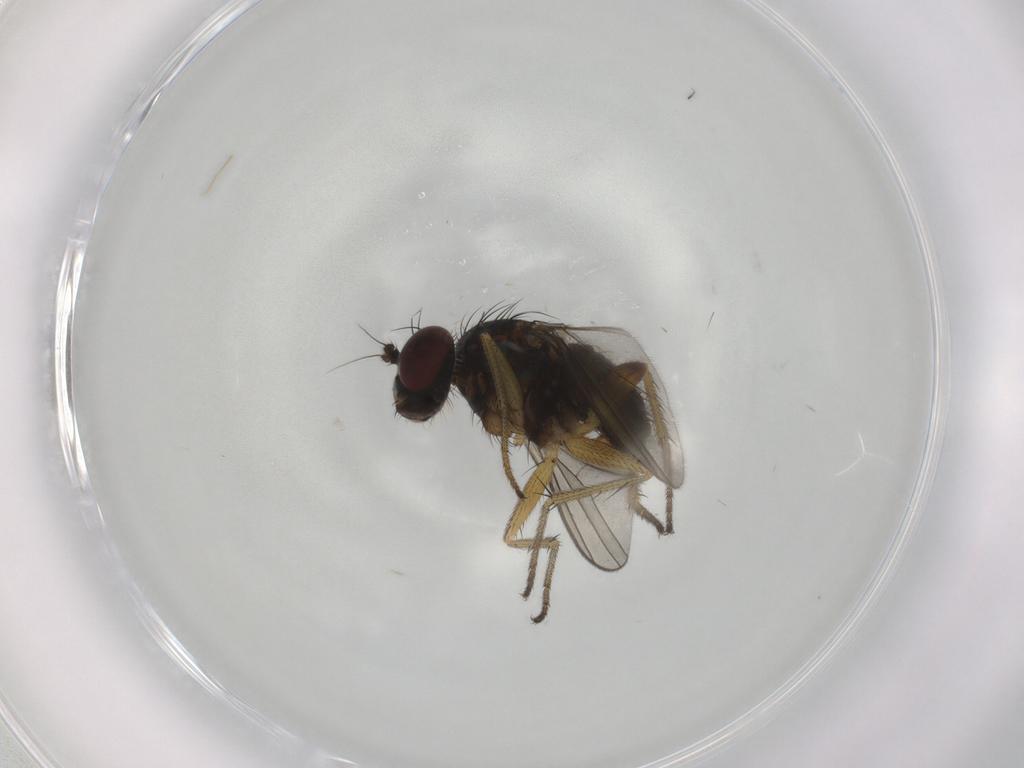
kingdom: Animalia
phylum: Arthropoda
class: Insecta
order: Diptera
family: Dolichopodidae
